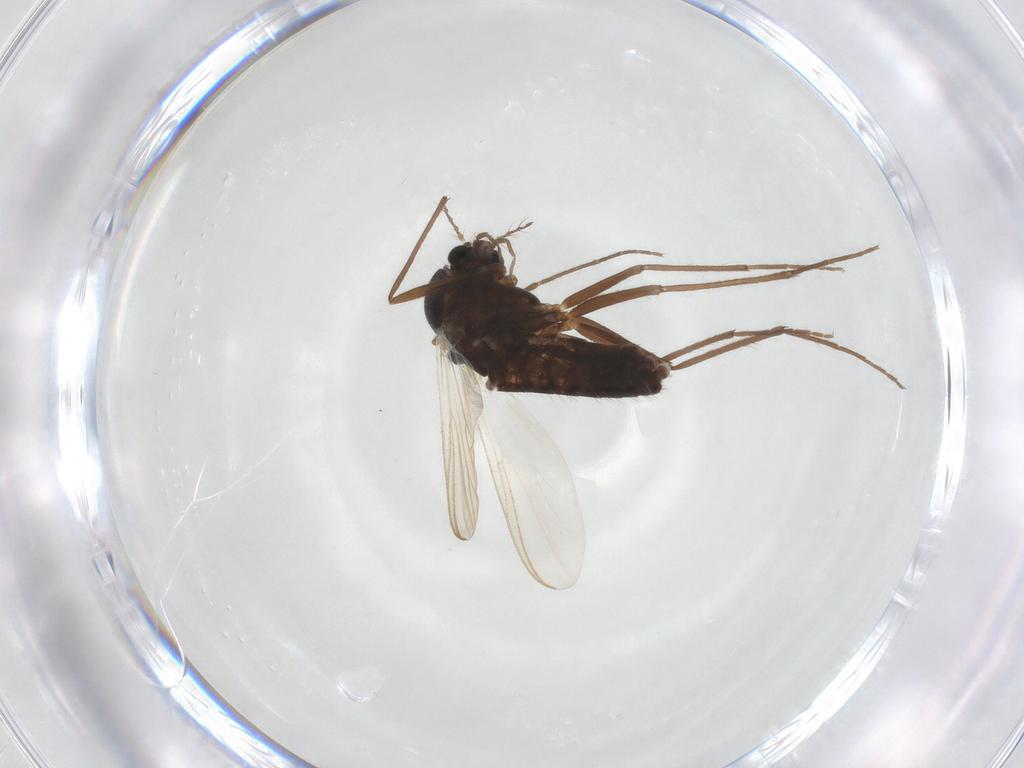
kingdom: Animalia
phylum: Arthropoda
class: Insecta
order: Diptera
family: Chironomidae
